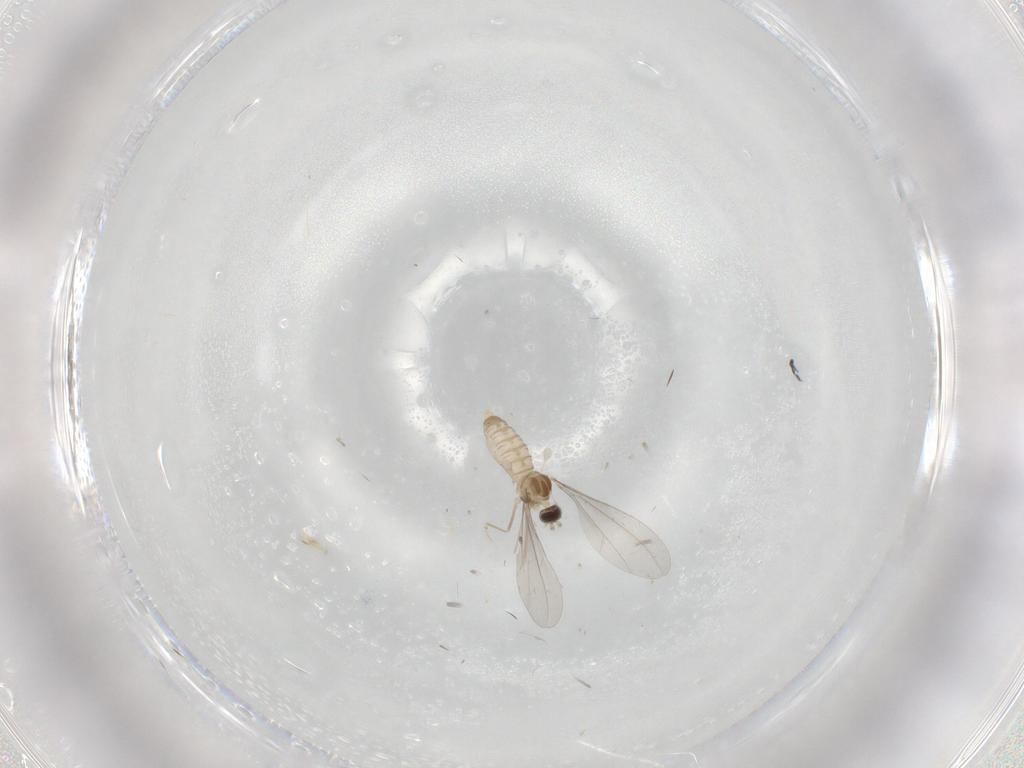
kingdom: Animalia
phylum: Arthropoda
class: Insecta
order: Diptera
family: Cecidomyiidae
